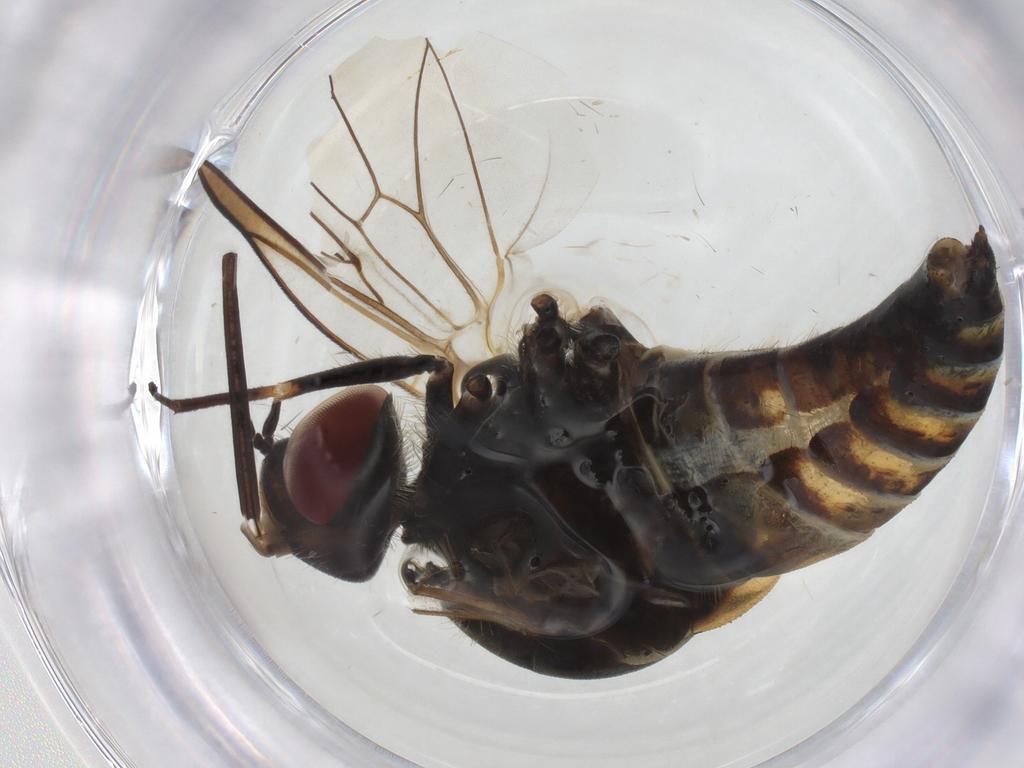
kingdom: Animalia
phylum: Arthropoda
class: Insecta
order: Diptera
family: Bombyliidae
